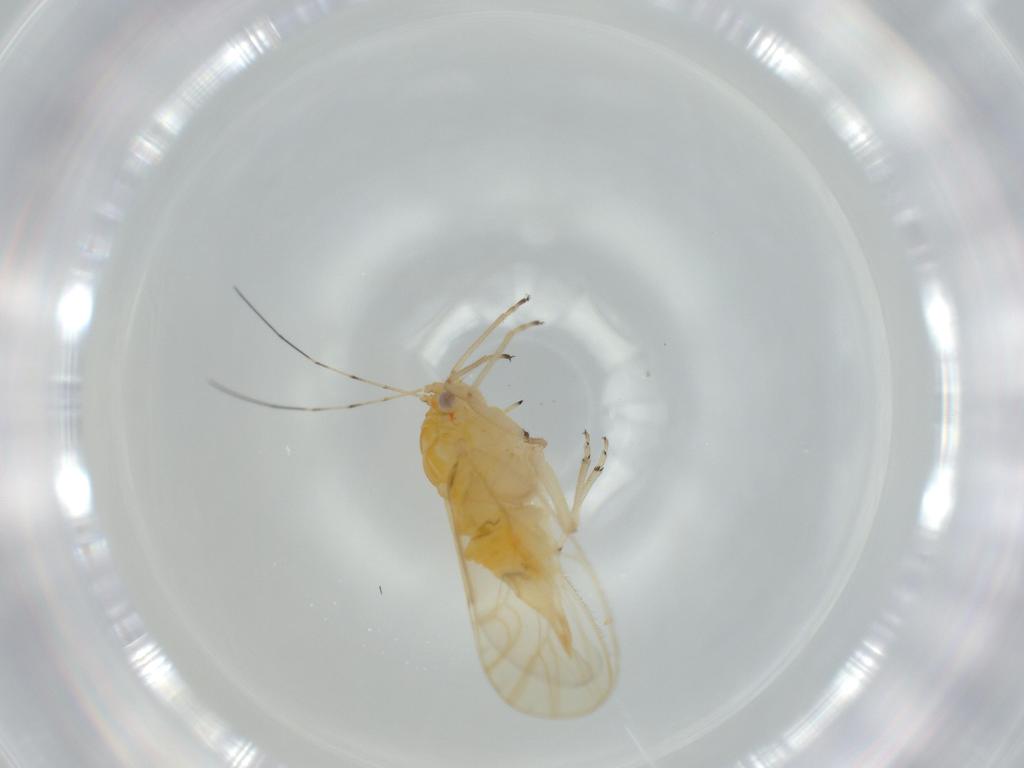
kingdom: Animalia
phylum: Arthropoda
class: Insecta
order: Hemiptera
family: Psyllidae
